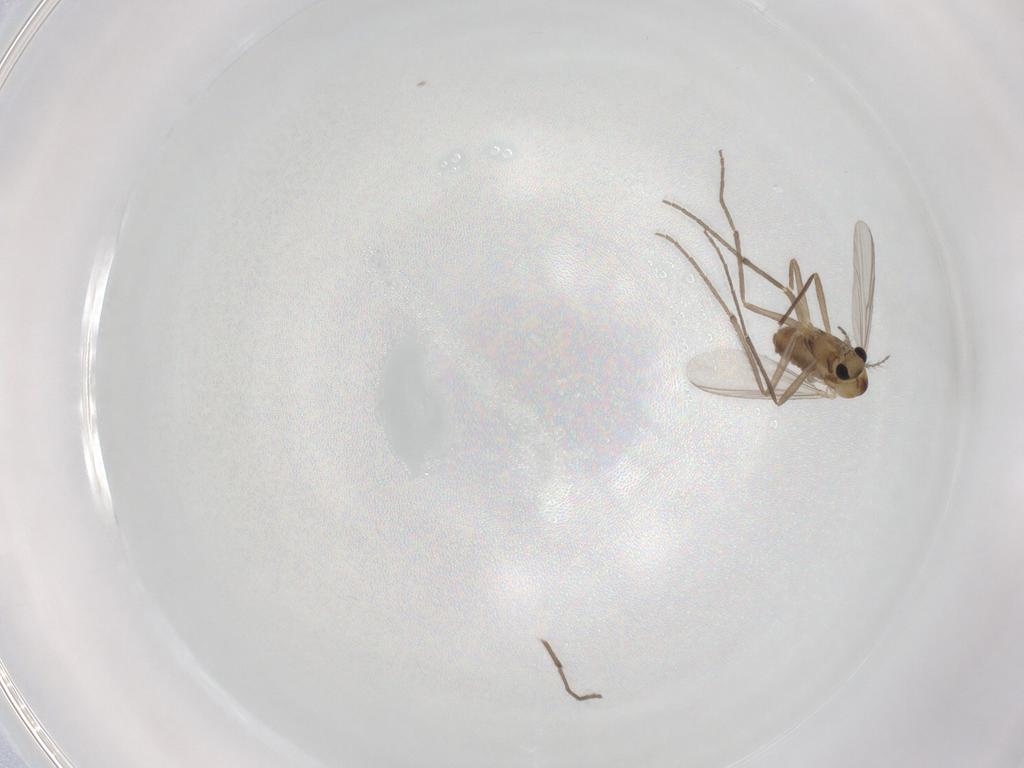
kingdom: Animalia
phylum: Arthropoda
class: Insecta
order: Diptera
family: Chironomidae
